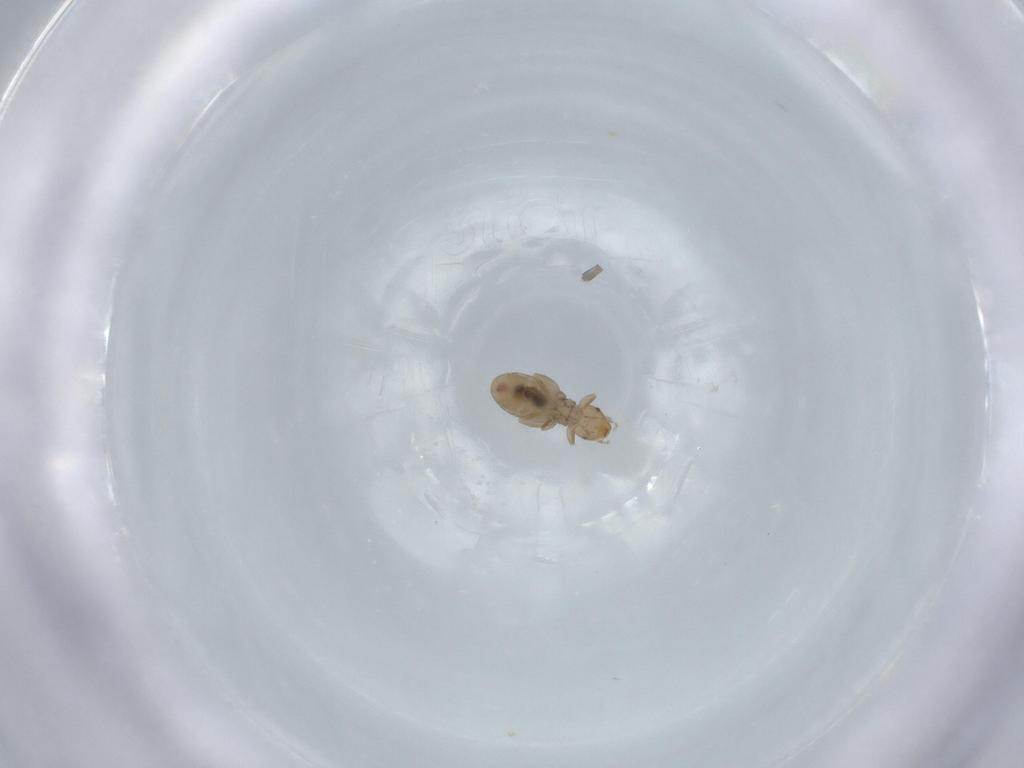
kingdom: Animalia
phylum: Arthropoda
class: Insecta
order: Psocodea
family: Liposcelididae
